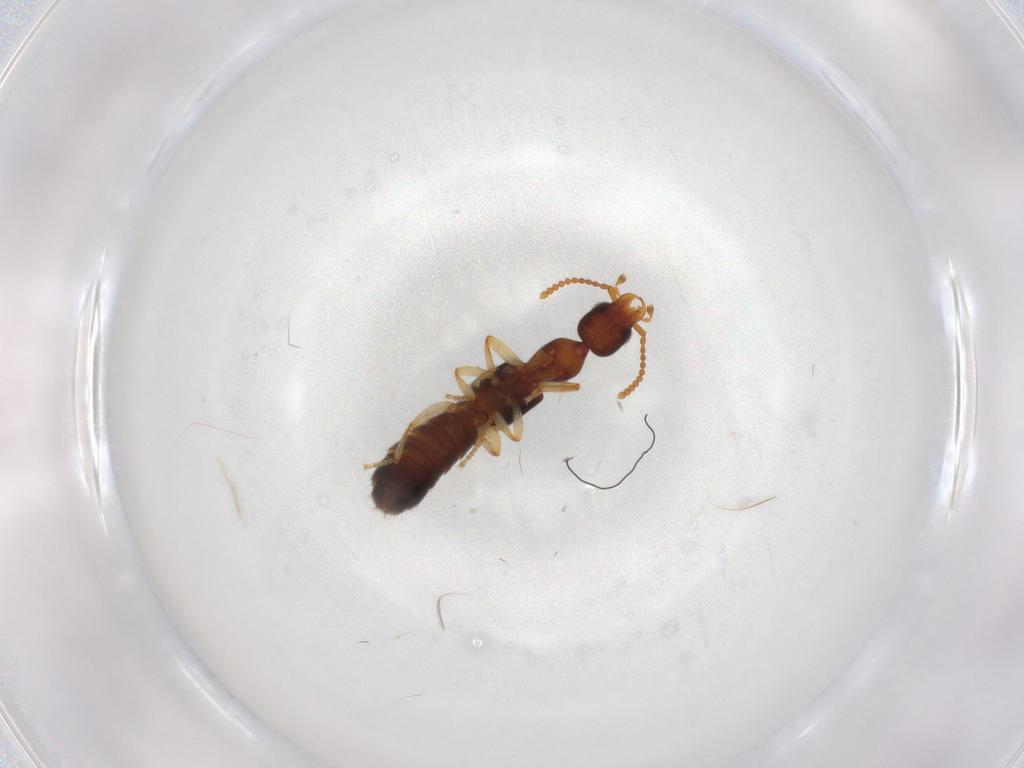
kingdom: Animalia
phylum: Arthropoda
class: Insecta
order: Coleoptera
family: Staphylinidae
